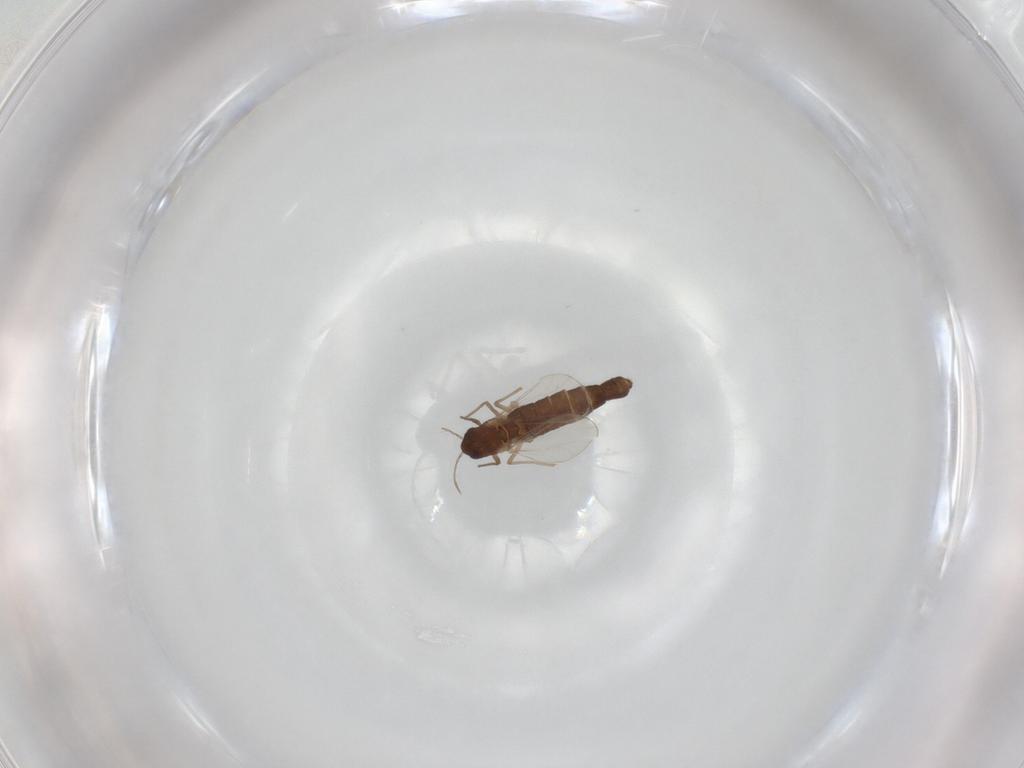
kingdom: Animalia
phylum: Arthropoda
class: Insecta
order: Diptera
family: Chironomidae
